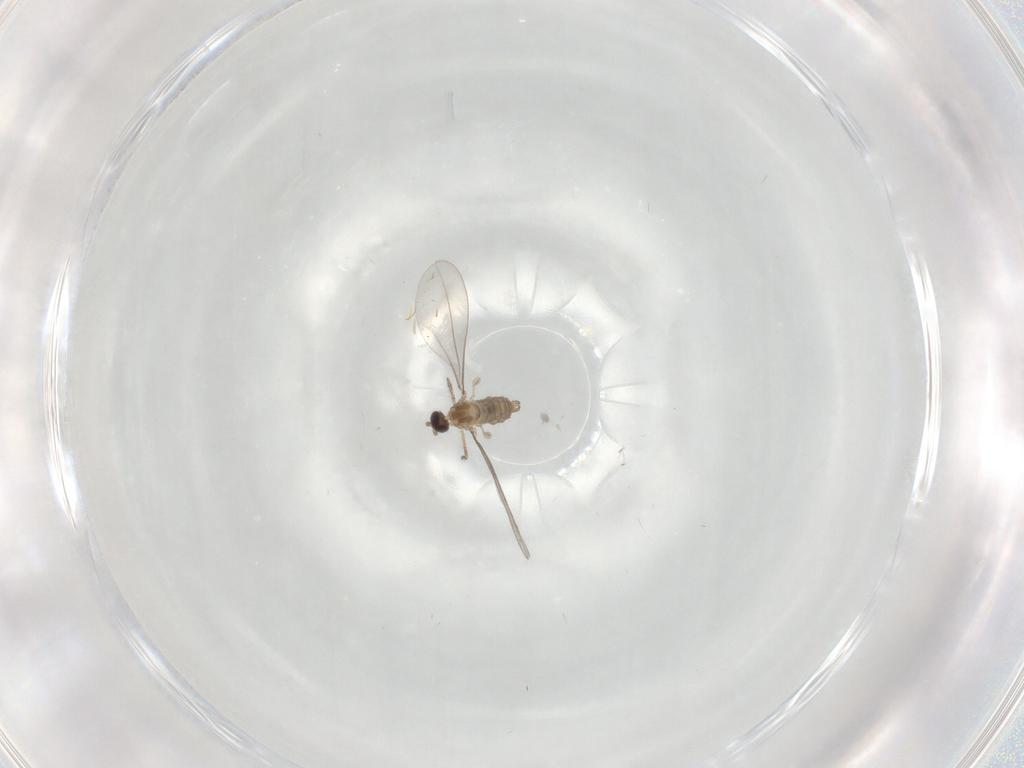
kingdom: Animalia
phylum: Arthropoda
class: Insecta
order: Diptera
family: Cecidomyiidae
